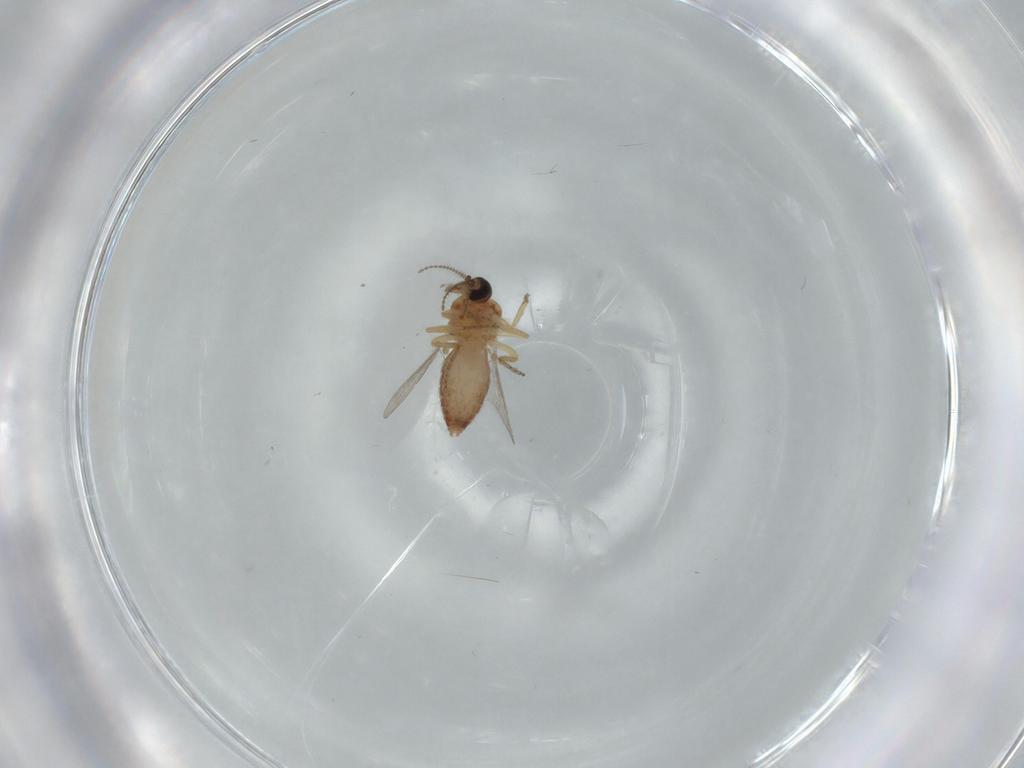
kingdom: Animalia
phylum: Arthropoda
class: Insecta
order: Diptera
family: Ceratopogonidae
